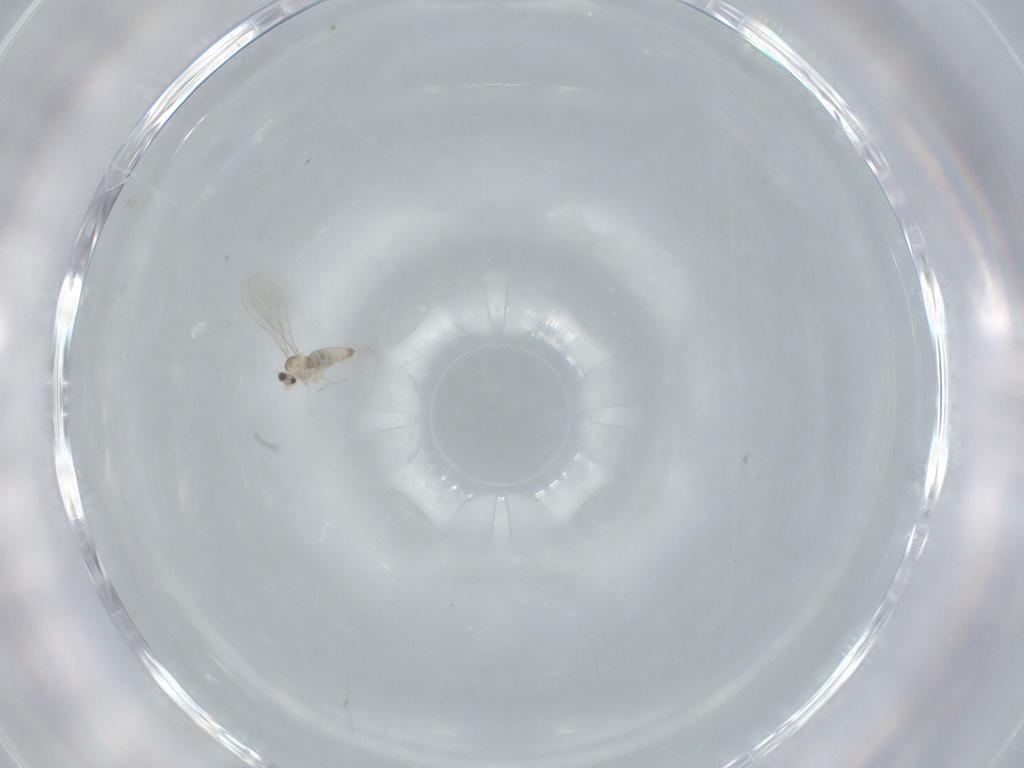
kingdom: Animalia
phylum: Arthropoda
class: Insecta
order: Diptera
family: Cecidomyiidae
